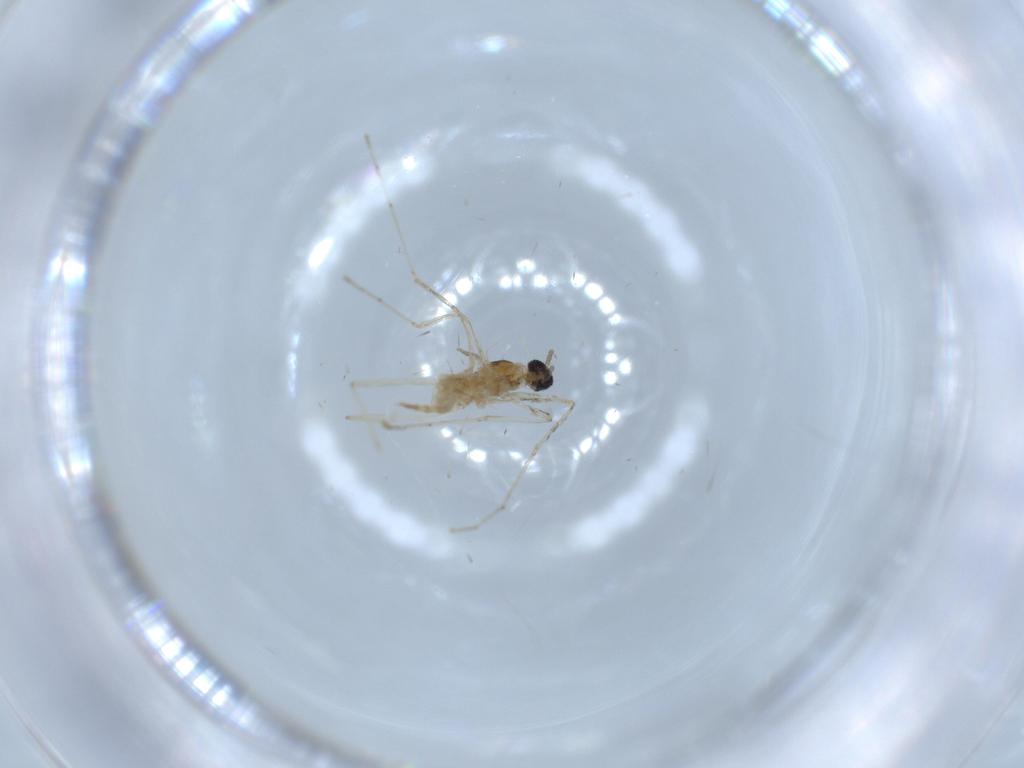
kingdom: Animalia
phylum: Arthropoda
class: Insecta
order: Diptera
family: Cecidomyiidae
